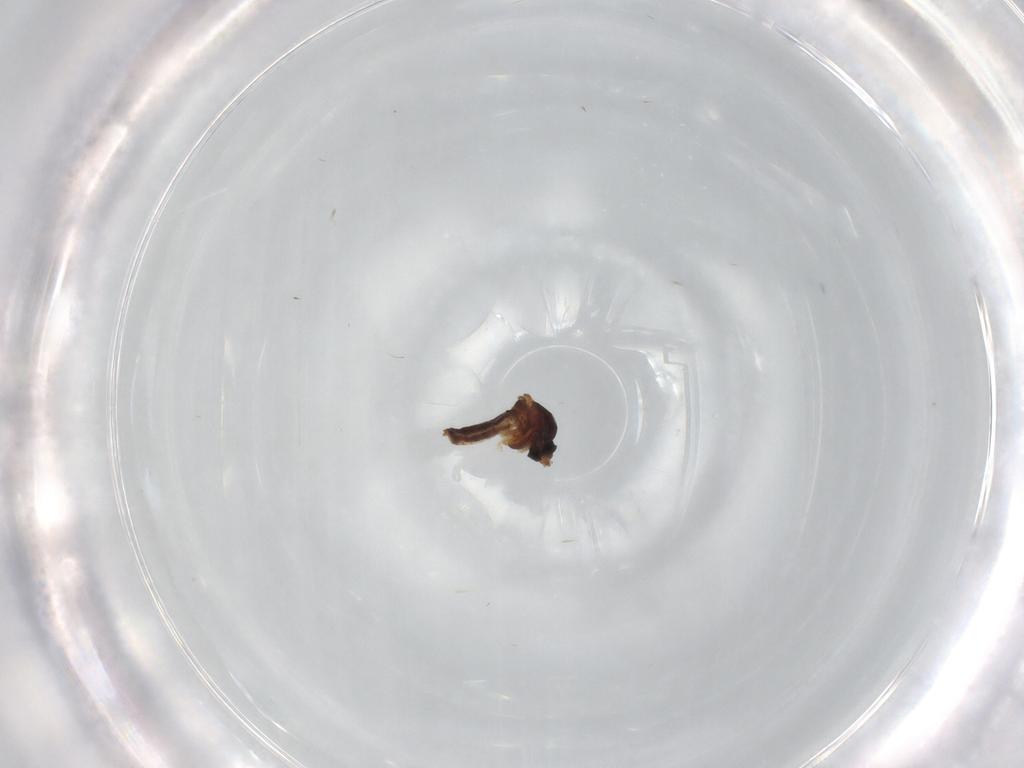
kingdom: Animalia
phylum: Arthropoda
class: Insecta
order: Diptera
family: Ceratopogonidae
